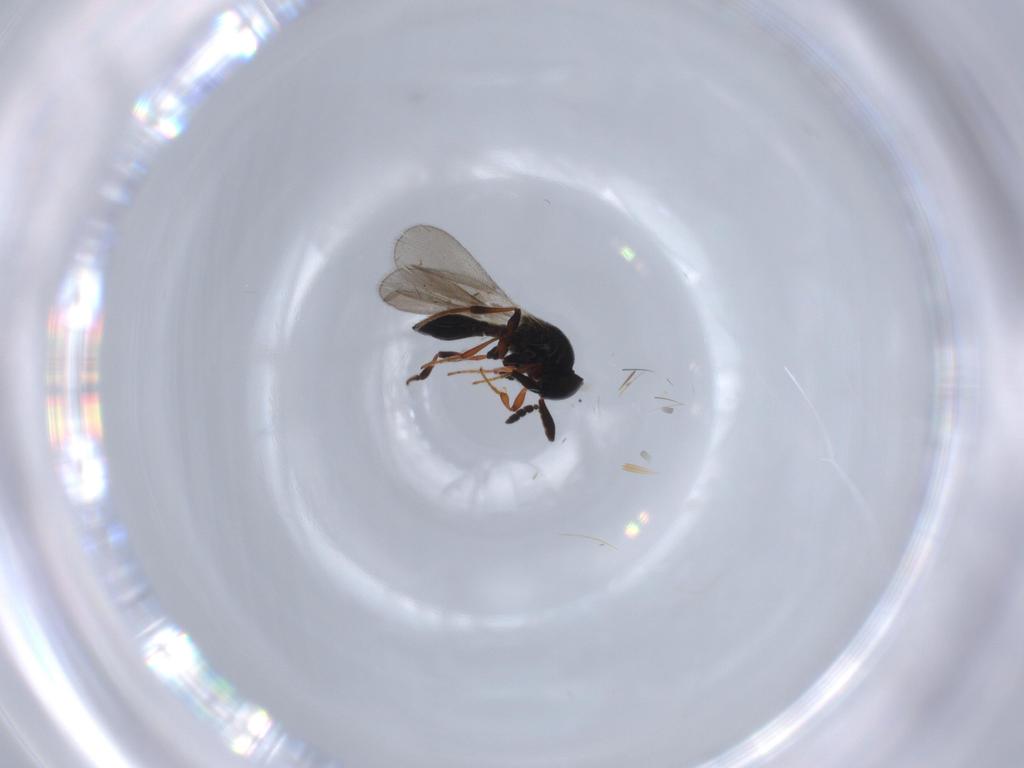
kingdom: Animalia
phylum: Arthropoda
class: Insecta
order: Hymenoptera
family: Platygastridae
